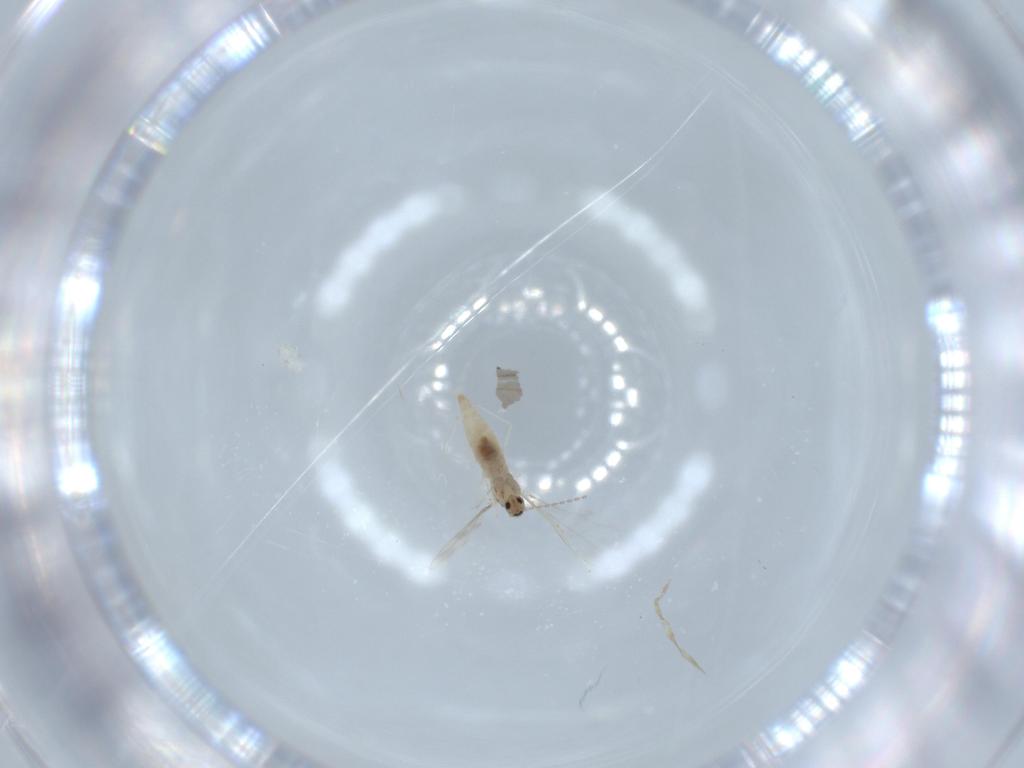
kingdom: Animalia
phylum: Arthropoda
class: Insecta
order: Diptera
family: Cecidomyiidae
